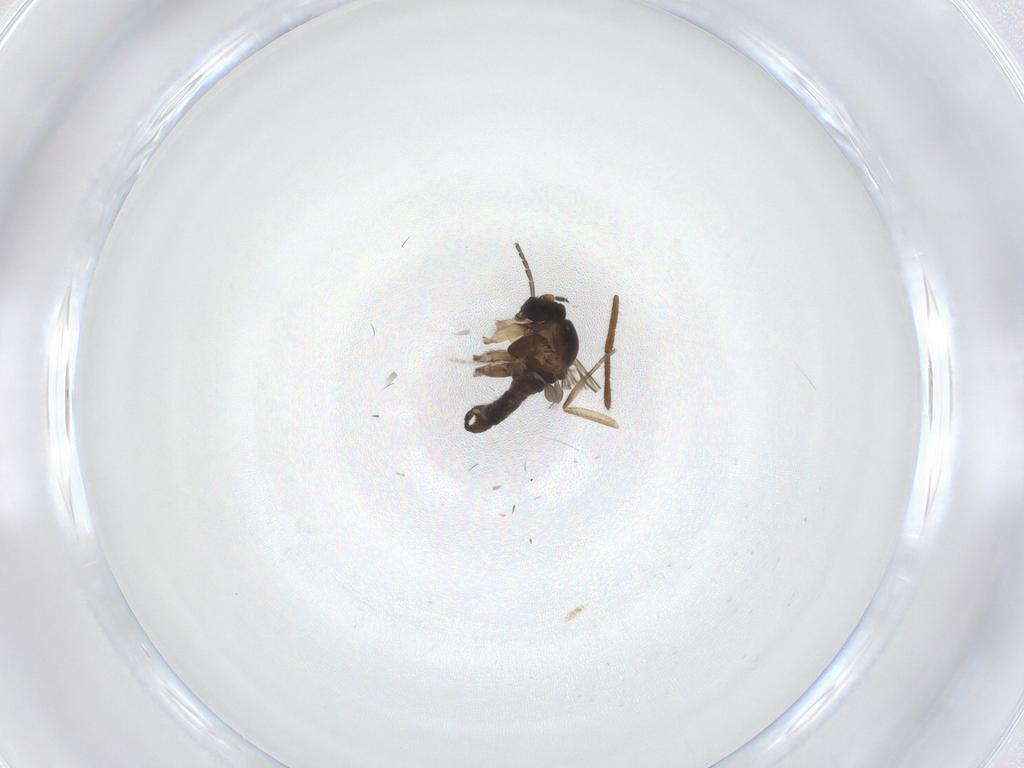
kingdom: Animalia
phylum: Arthropoda
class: Insecta
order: Diptera
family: Sciaridae
